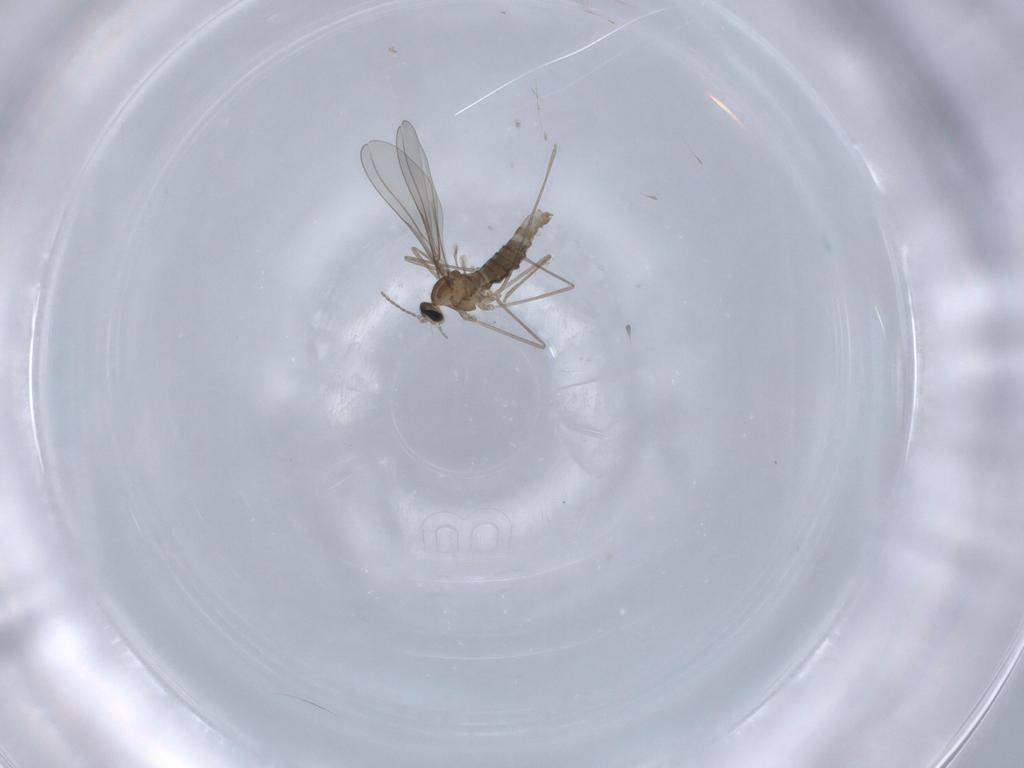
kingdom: Animalia
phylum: Arthropoda
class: Insecta
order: Diptera
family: Cecidomyiidae
